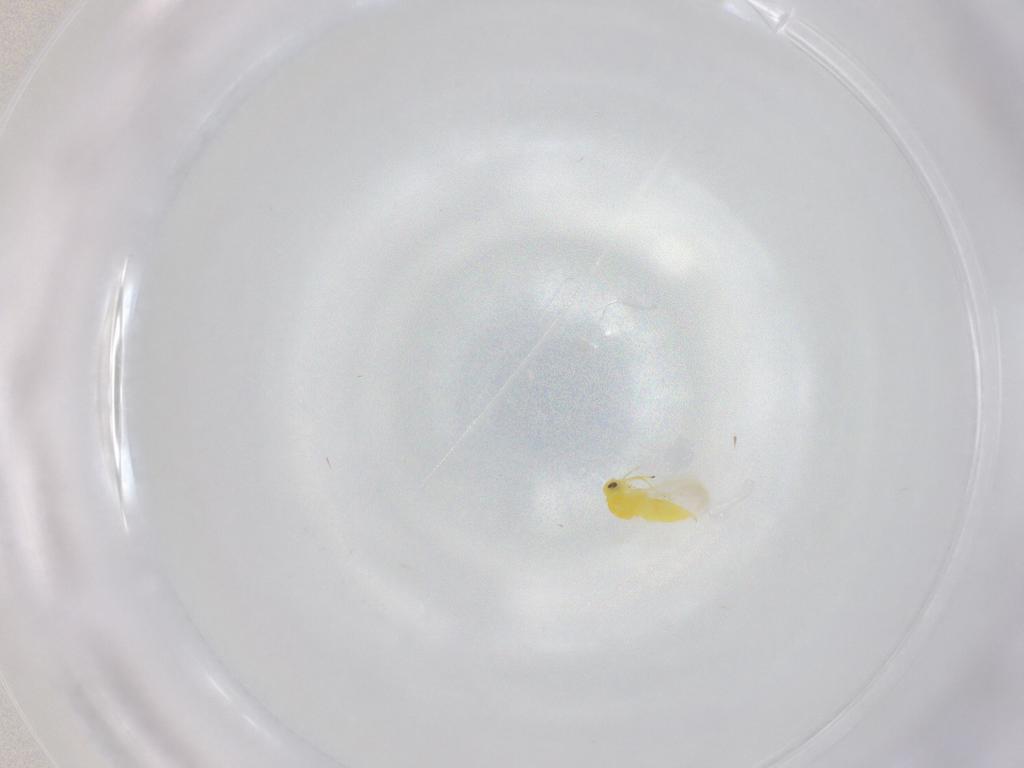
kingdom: Animalia
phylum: Arthropoda
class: Insecta
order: Hemiptera
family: Aleyrodidae
